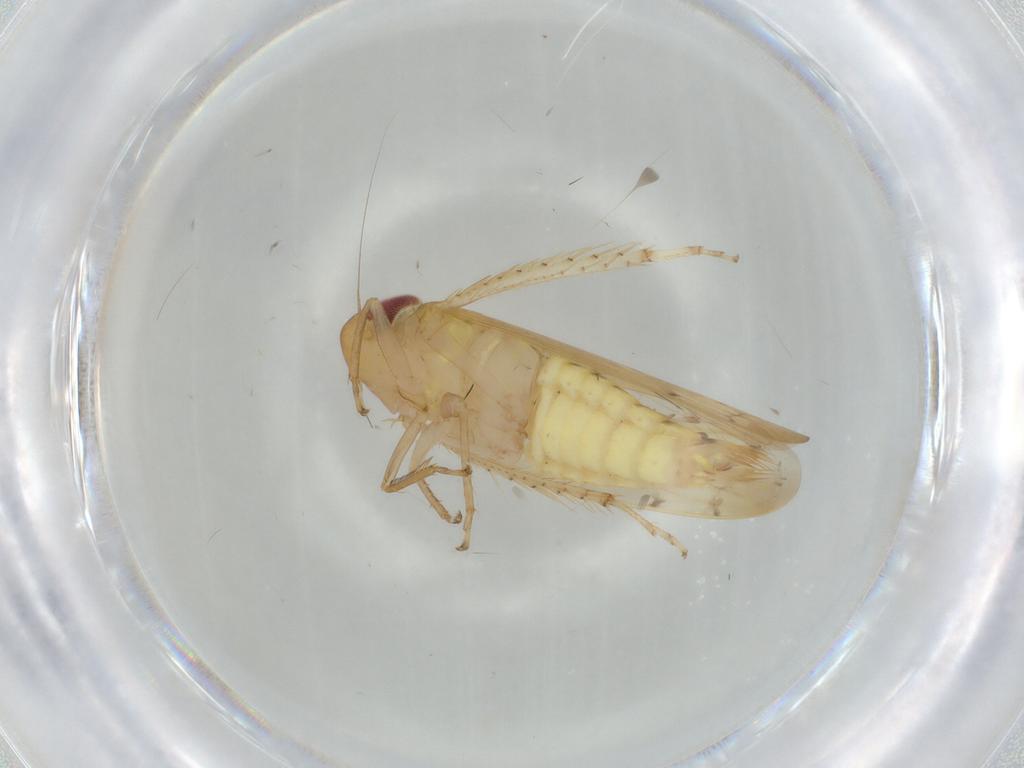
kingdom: Animalia
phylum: Arthropoda
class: Insecta
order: Hemiptera
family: Cicadellidae
